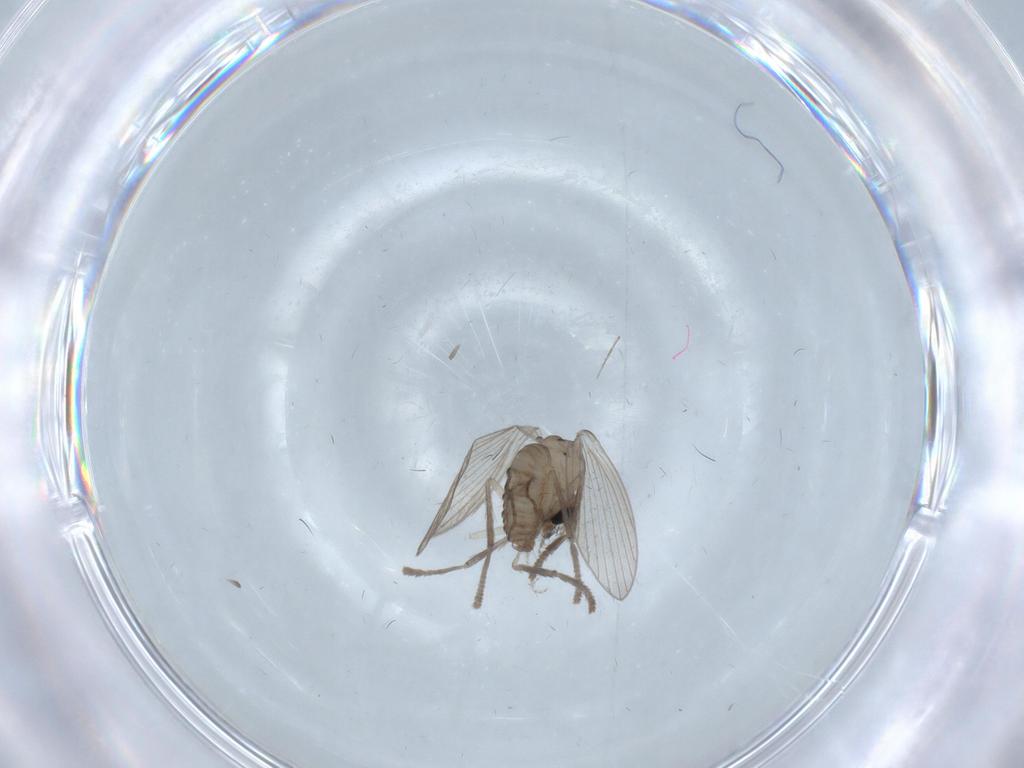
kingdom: Animalia
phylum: Arthropoda
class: Insecta
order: Diptera
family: Psychodidae
